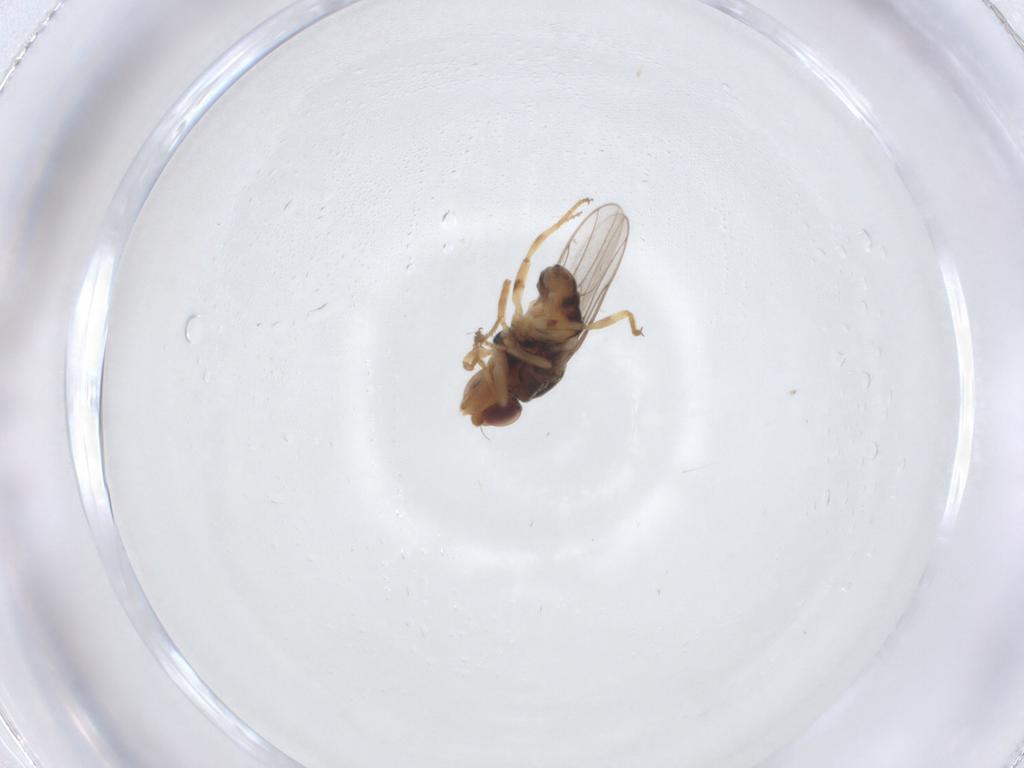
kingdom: Animalia
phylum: Arthropoda
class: Insecta
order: Diptera
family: Chloropidae
